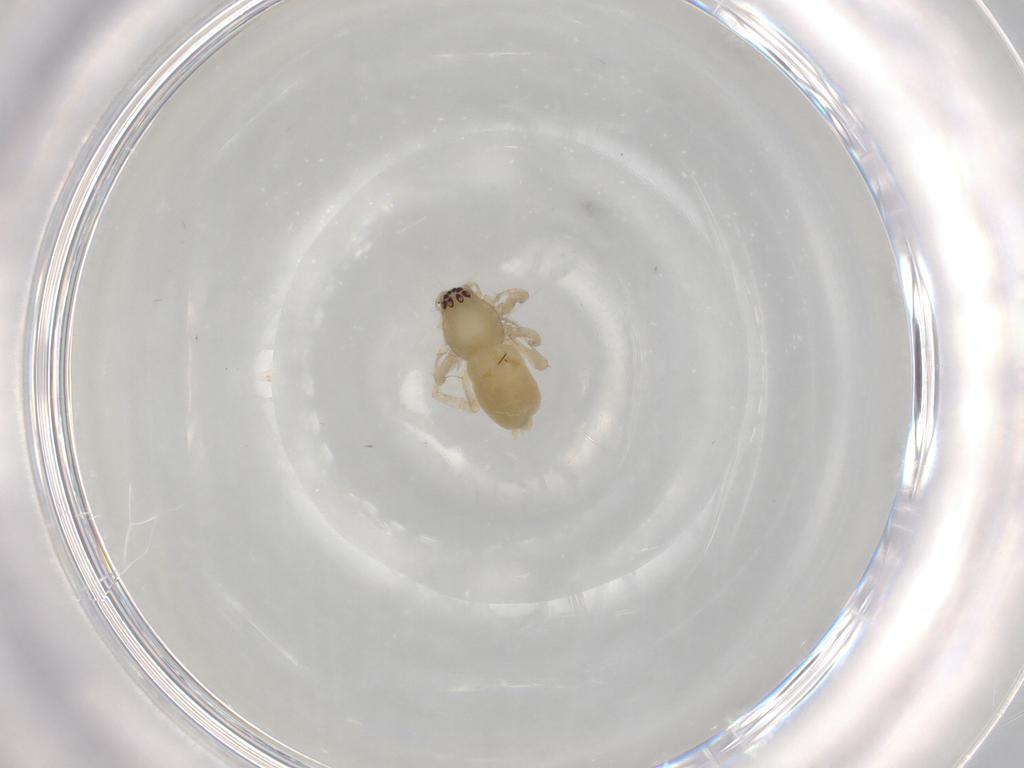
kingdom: Animalia
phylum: Arthropoda
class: Arachnida
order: Araneae
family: Anyphaenidae
